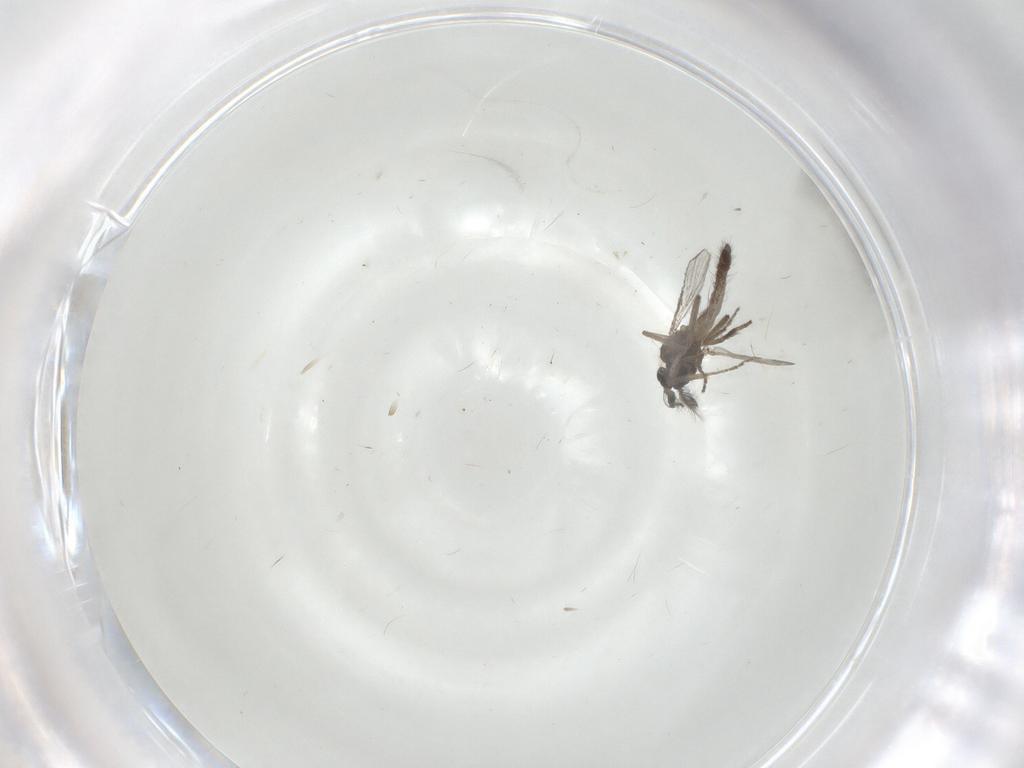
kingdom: Animalia
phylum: Arthropoda
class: Insecta
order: Diptera
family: Ceratopogonidae
